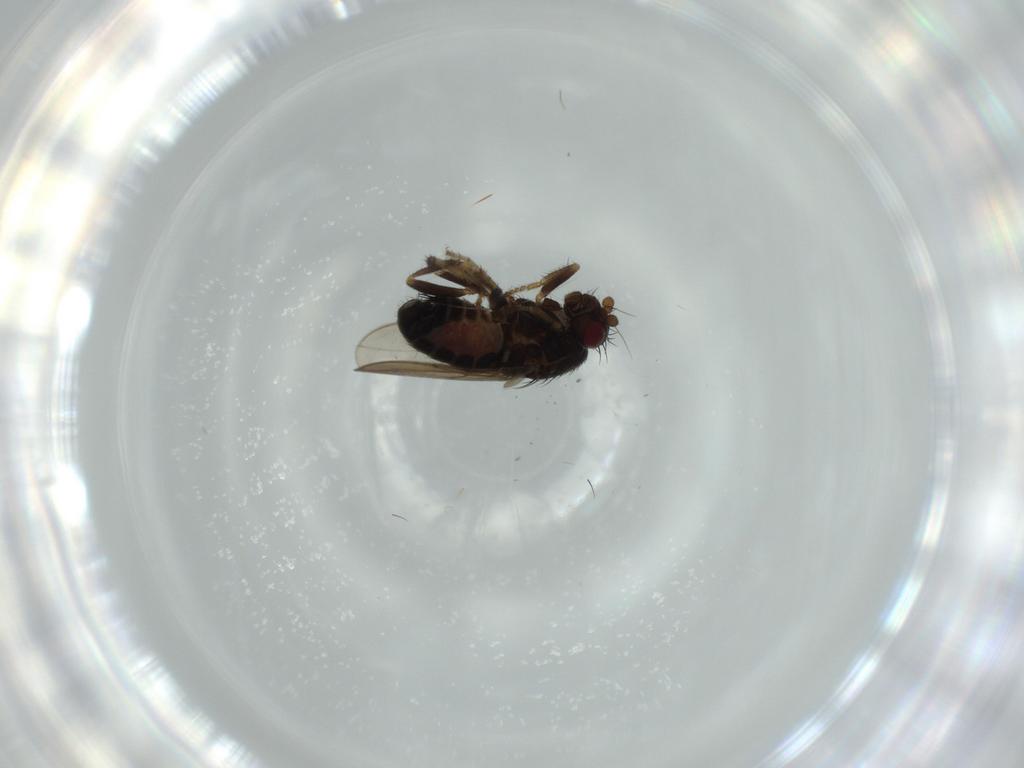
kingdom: Animalia
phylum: Arthropoda
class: Insecta
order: Diptera
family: Sphaeroceridae
